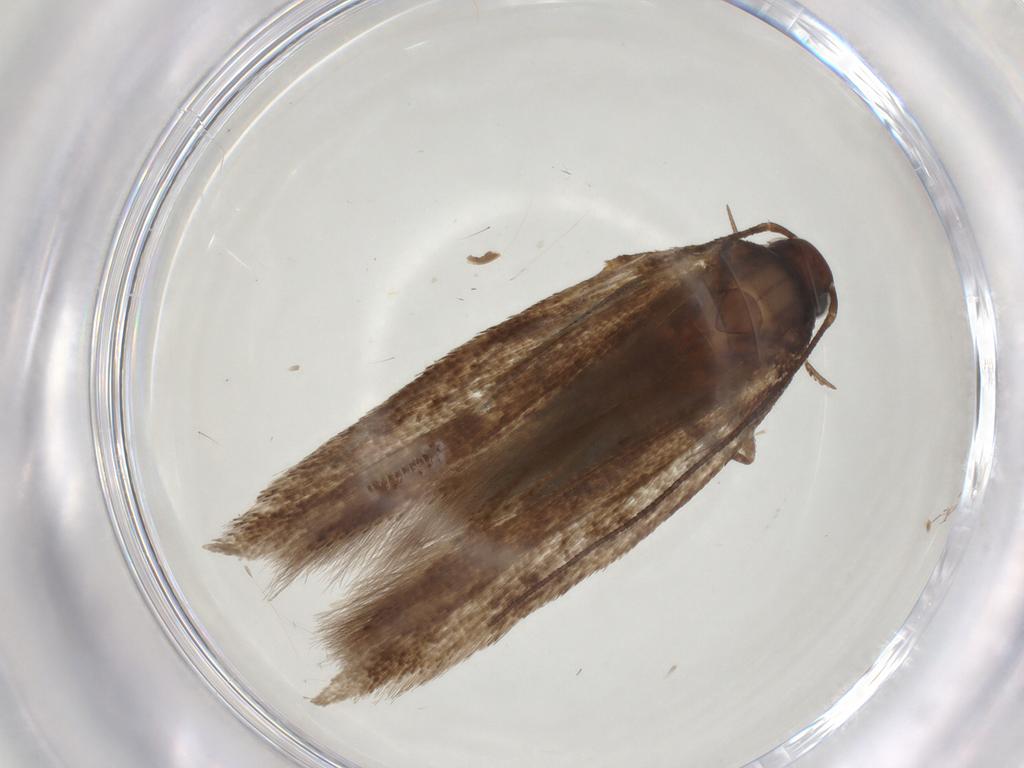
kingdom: Animalia
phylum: Arthropoda
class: Insecta
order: Lepidoptera
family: Gelechiidae
